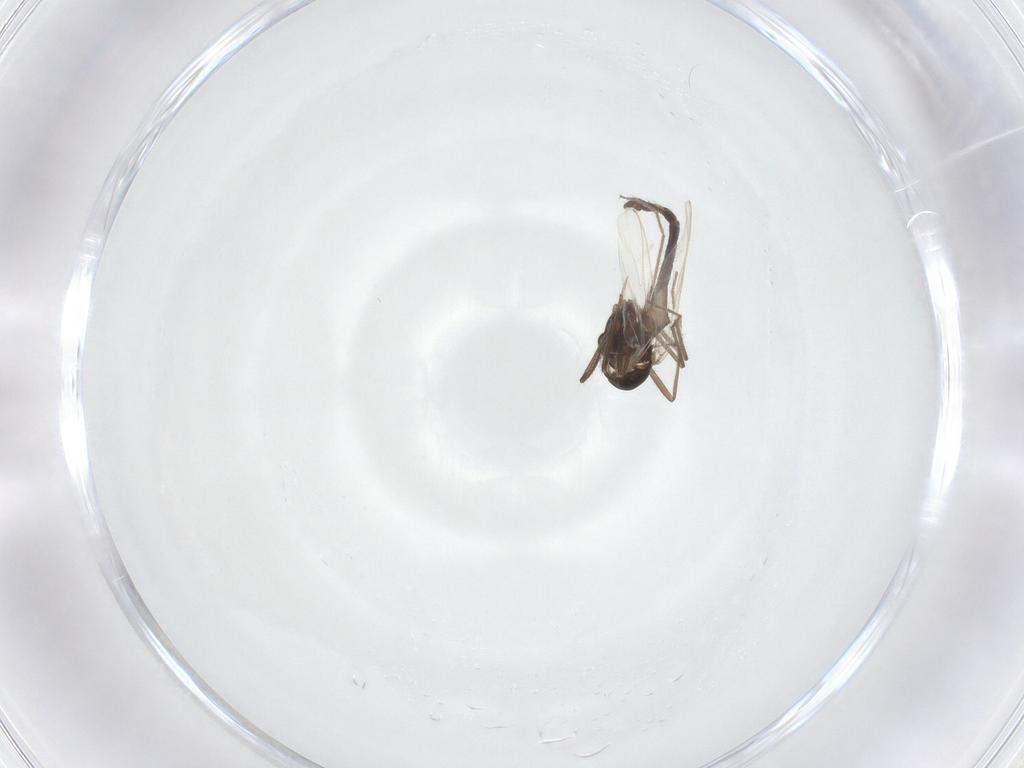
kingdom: Animalia
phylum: Arthropoda
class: Insecta
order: Diptera
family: Chironomidae
